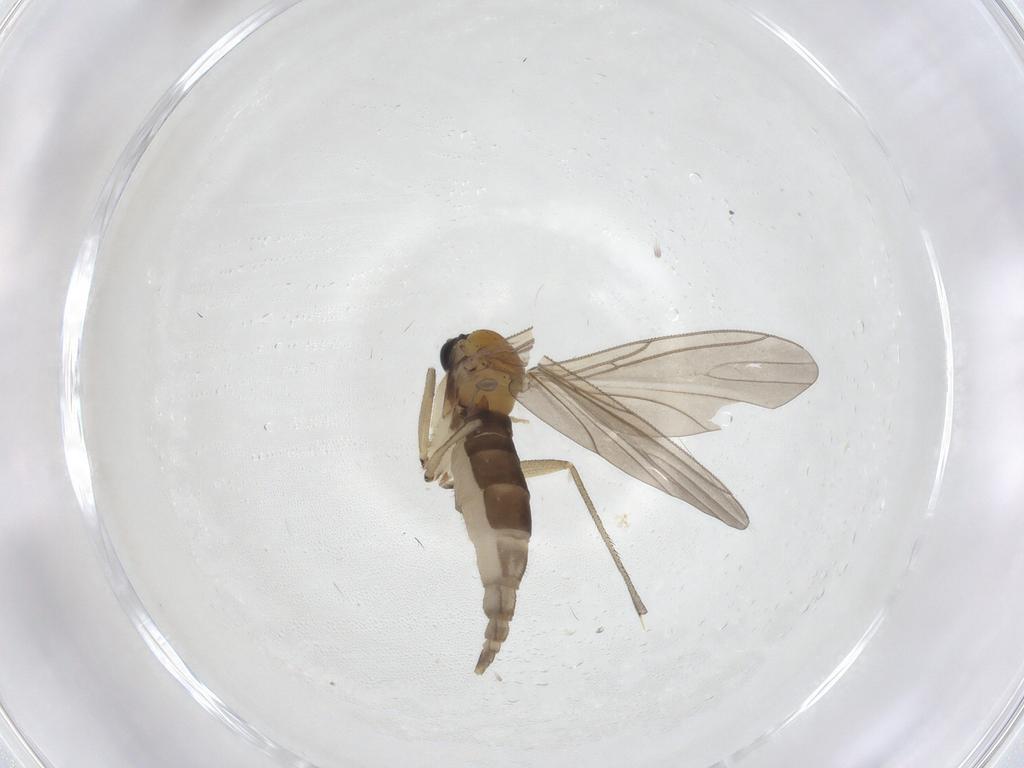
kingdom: Animalia
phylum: Arthropoda
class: Insecta
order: Diptera
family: Sciaridae
